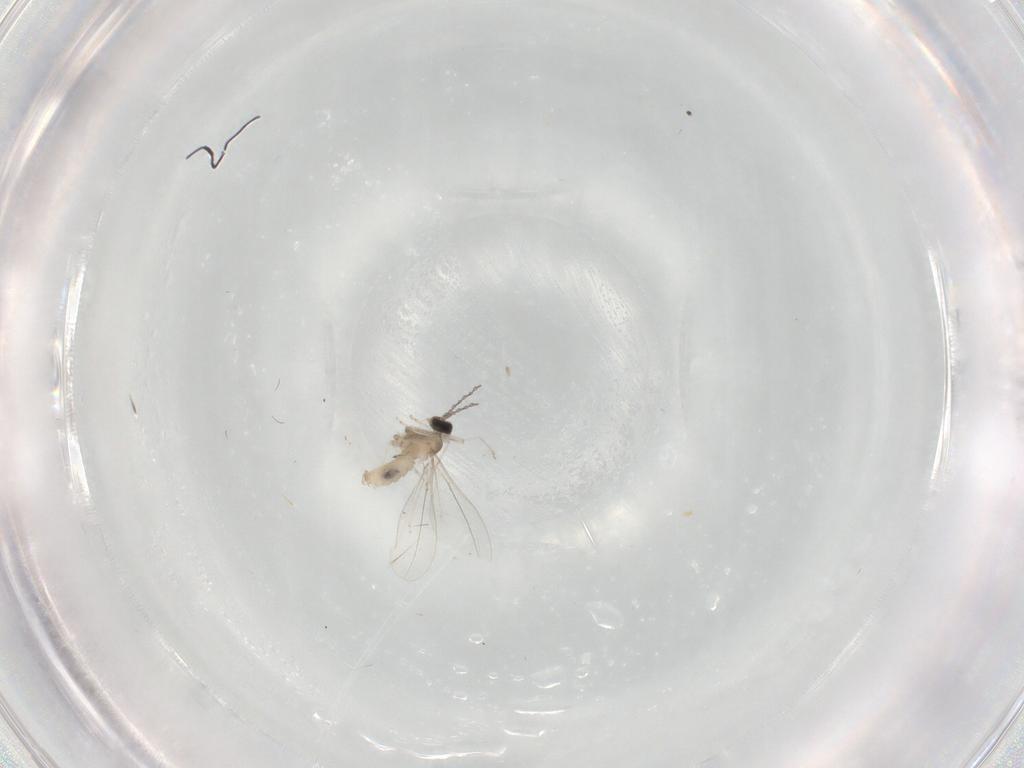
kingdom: Animalia
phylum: Arthropoda
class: Insecta
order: Diptera
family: Cecidomyiidae
